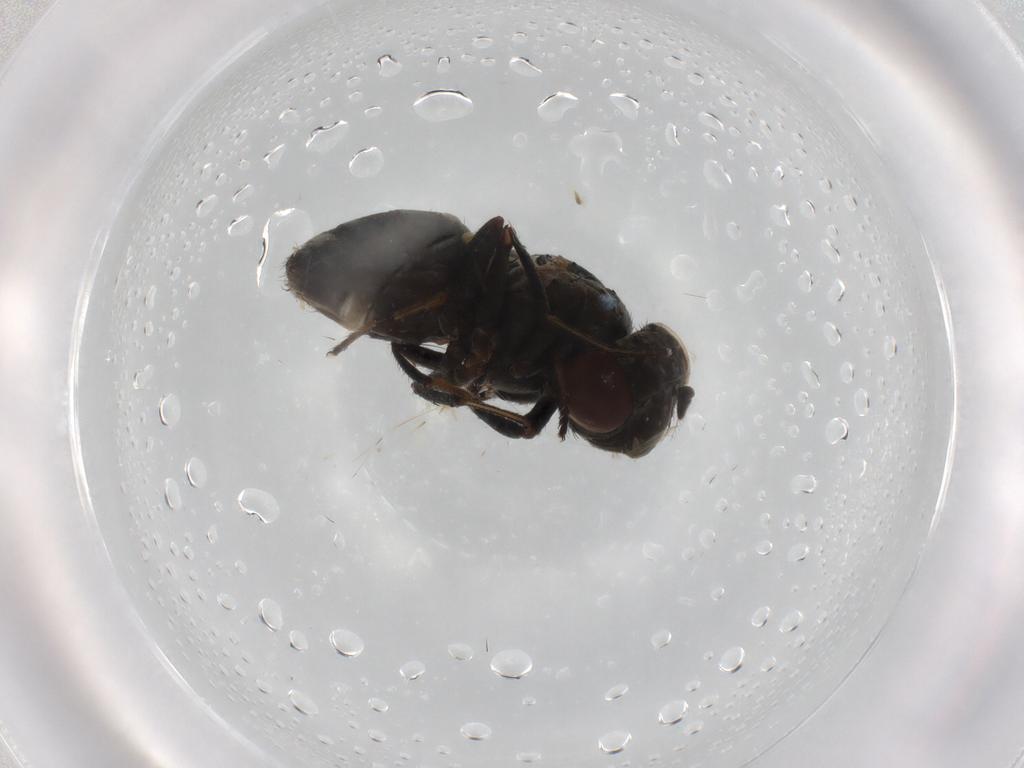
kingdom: Animalia
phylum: Arthropoda
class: Insecta
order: Diptera
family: Ephydridae
